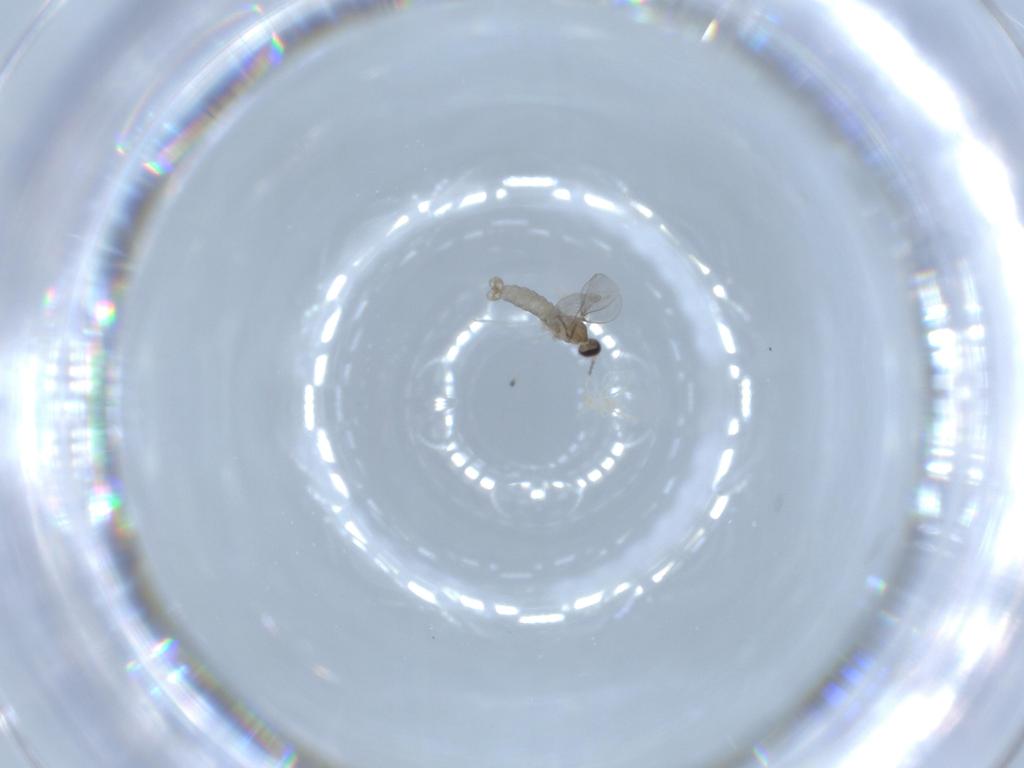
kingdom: Animalia
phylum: Arthropoda
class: Insecta
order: Diptera
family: Cecidomyiidae
